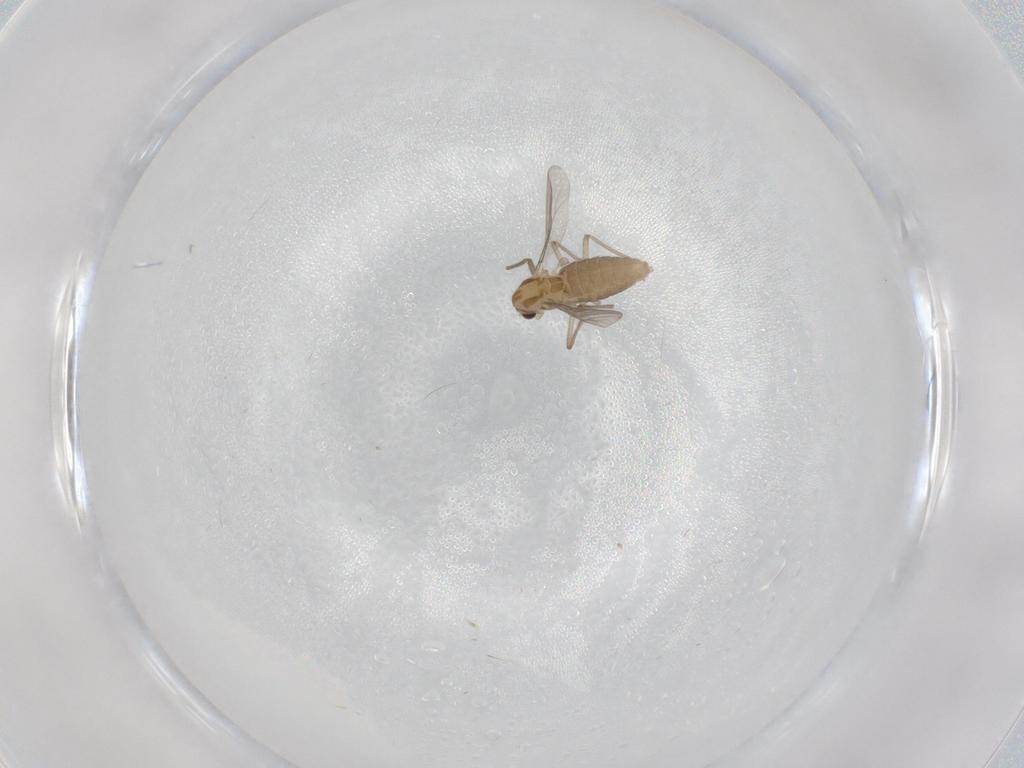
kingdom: Animalia
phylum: Arthropoda
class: Insecta
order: Diptera
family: Chironomidae
